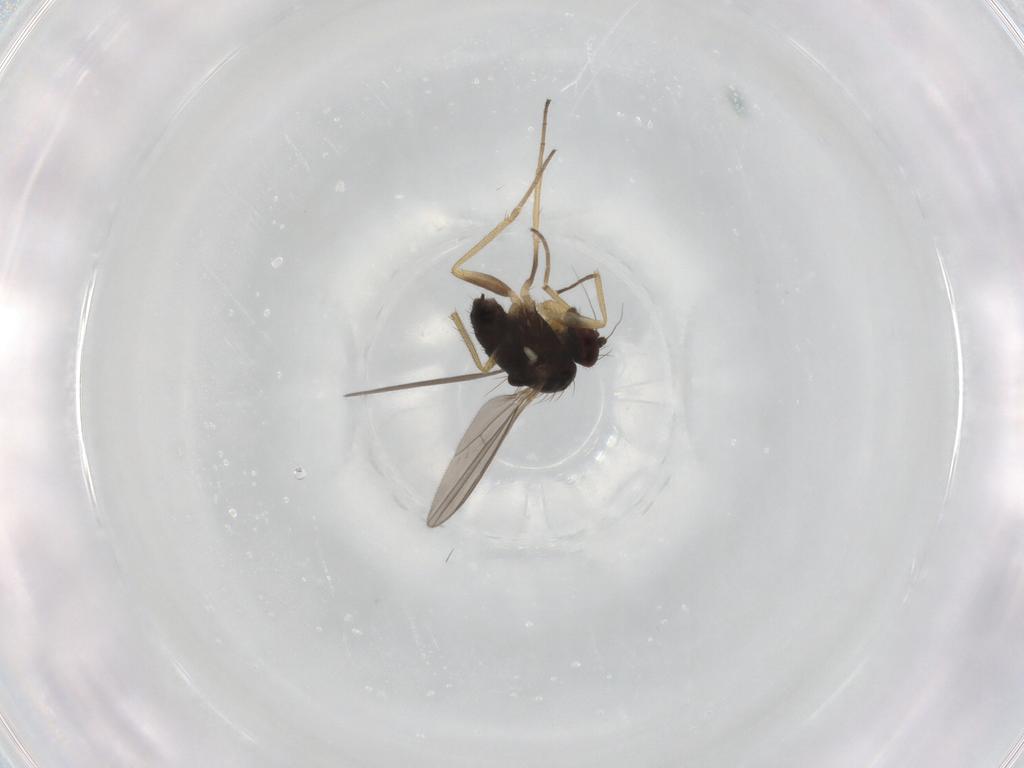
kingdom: Animalia
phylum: Arthropoda
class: Insecta
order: Diptera
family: Dolichopodidae
